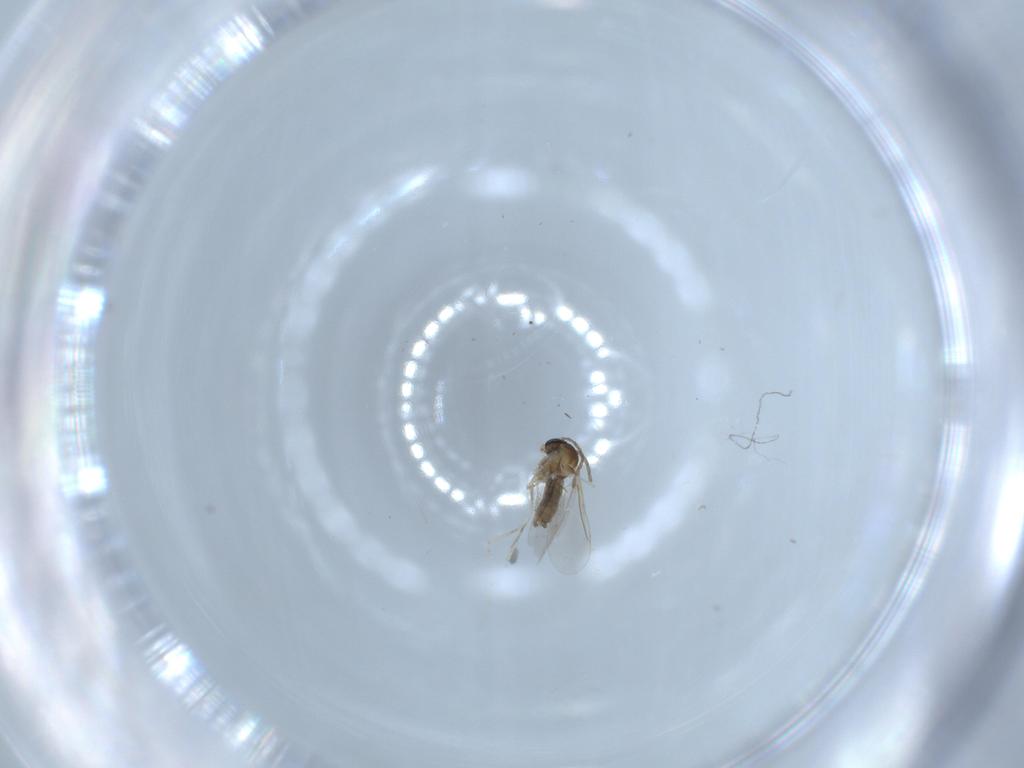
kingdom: Animalia
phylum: Arthropoda
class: Insecta
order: Diptera
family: Cecidomyiidae
